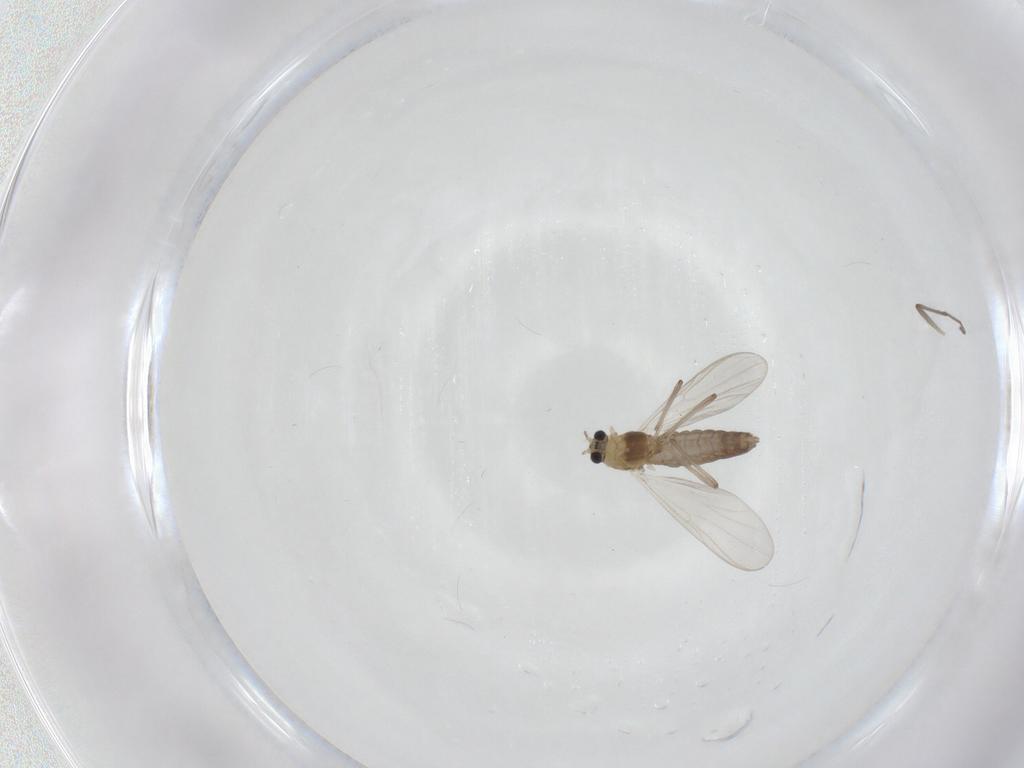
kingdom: Animalia
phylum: Arthropoda
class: Insecta
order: Diptera
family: Chironomidae
